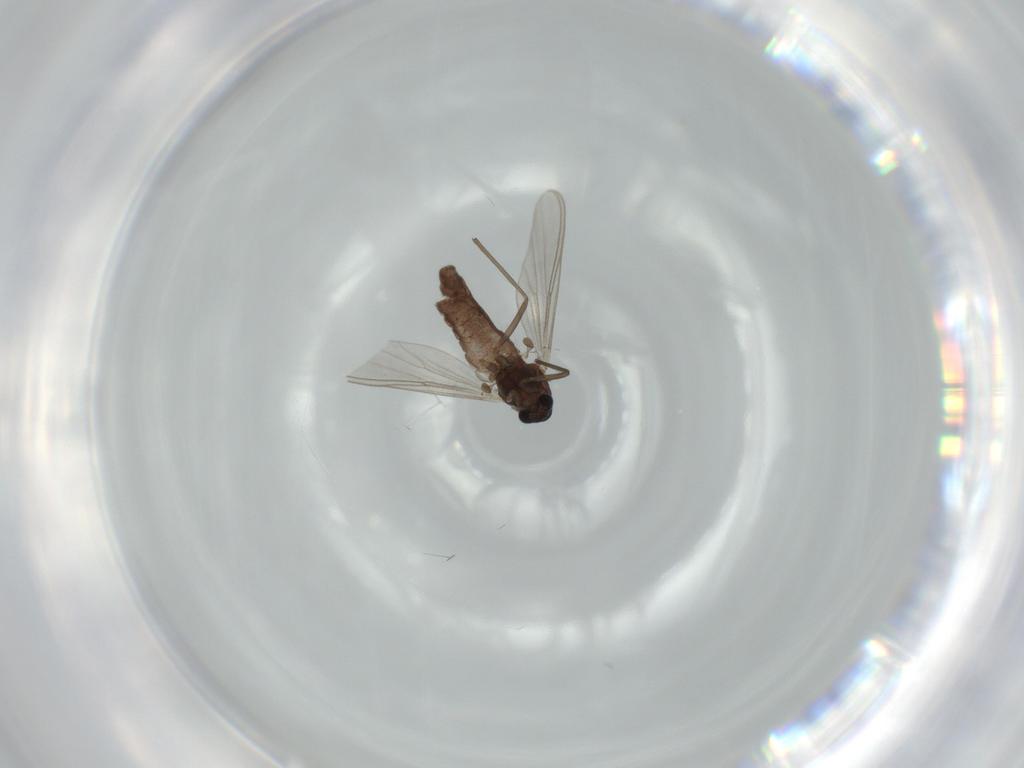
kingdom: Animalia
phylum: Arthropoda
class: Insecta
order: Diptera
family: Chironomidae
